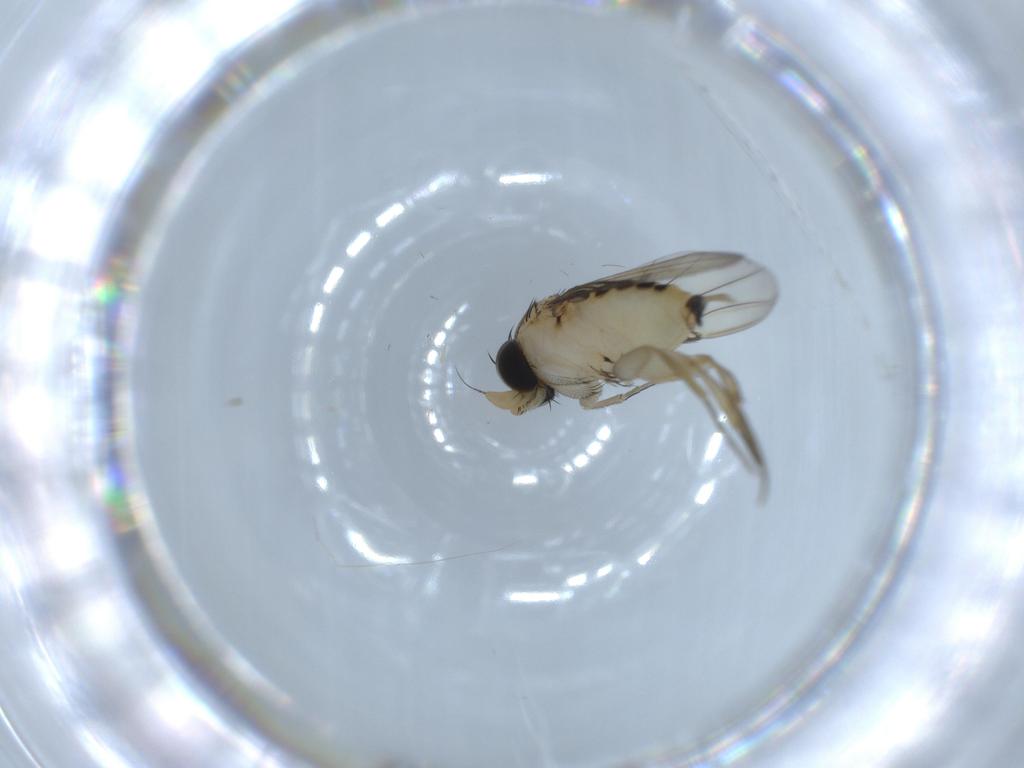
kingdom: Animalia
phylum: Arthropoda
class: Insecta
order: Diptera
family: Phoridae
